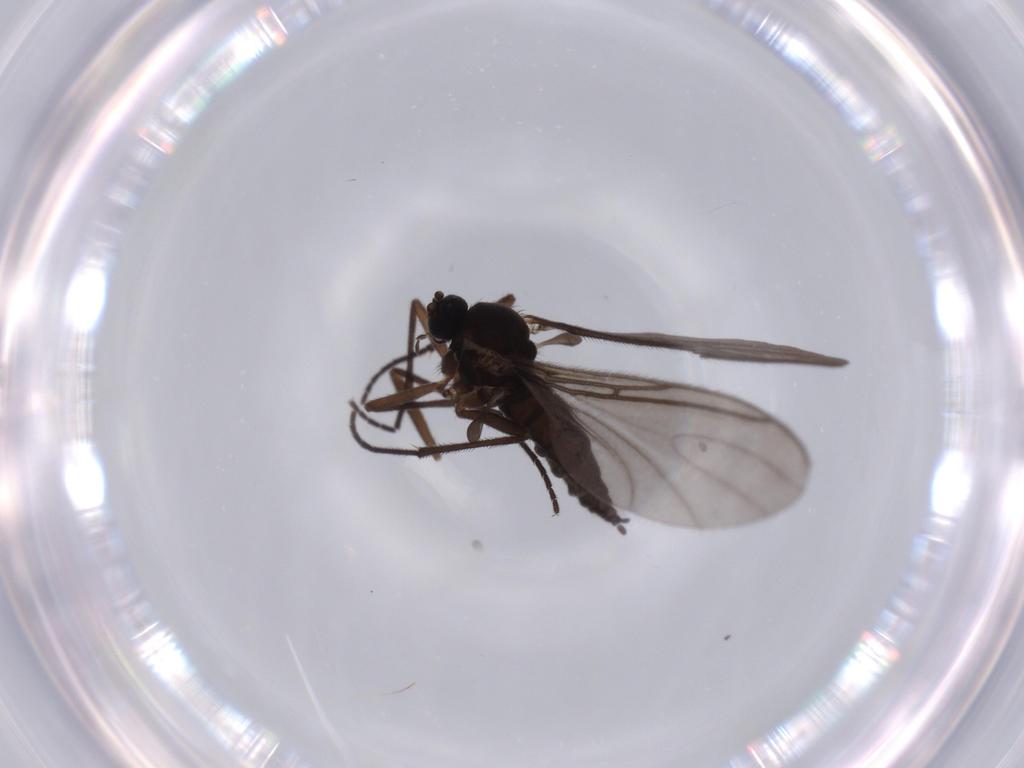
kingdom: Animalia
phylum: Arthropoda
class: Insecta
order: Diptera
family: Sciaridae
